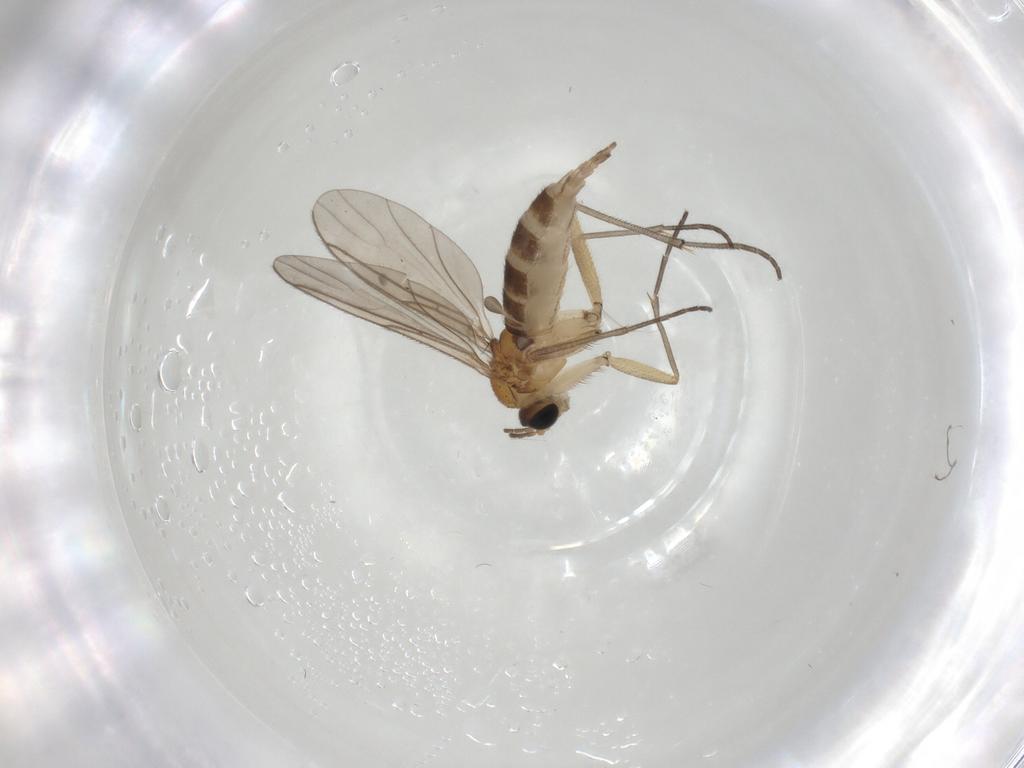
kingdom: Animalia
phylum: Arthropoda
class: Insecta
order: Diptera
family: Sciaridae
